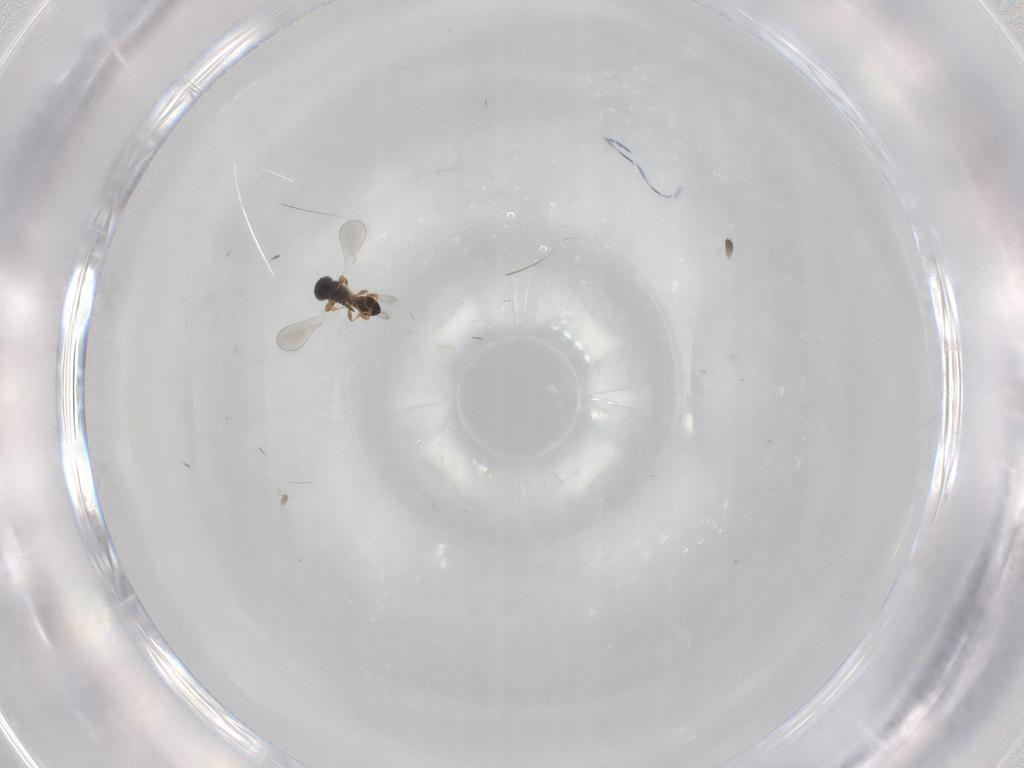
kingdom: Animalia
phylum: Arthropoda
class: Insecta
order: Hymenoptera
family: Platygastridae
